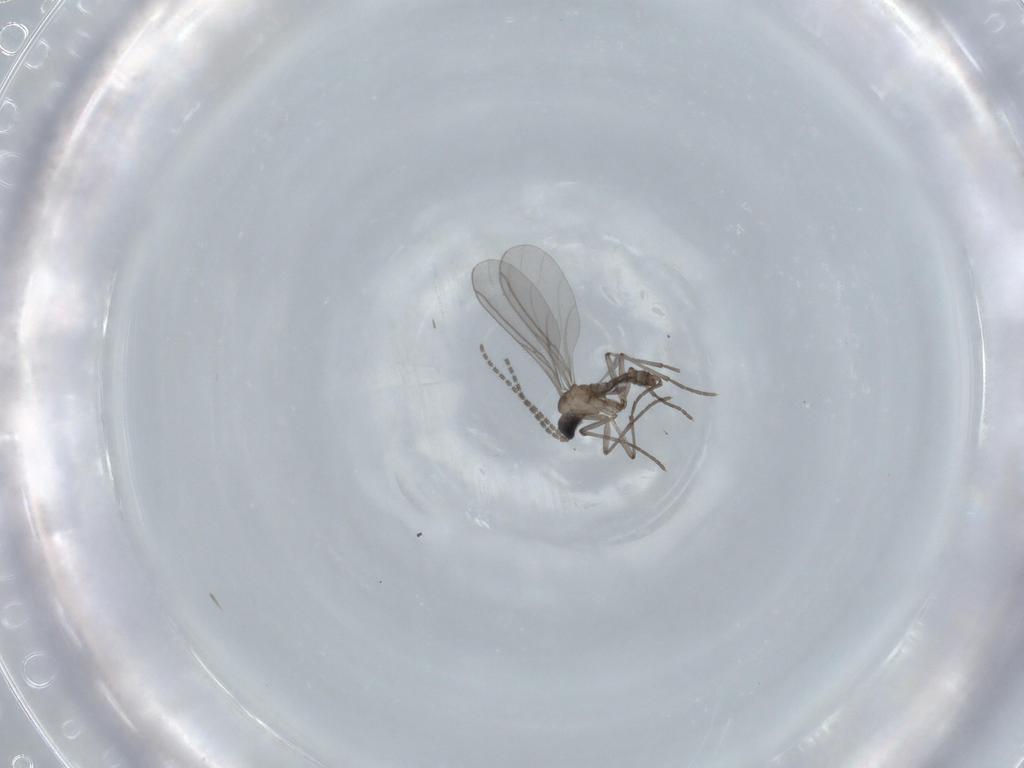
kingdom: Animalia
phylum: Arthropoda
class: Insecta
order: Diptera
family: Sciaridae
